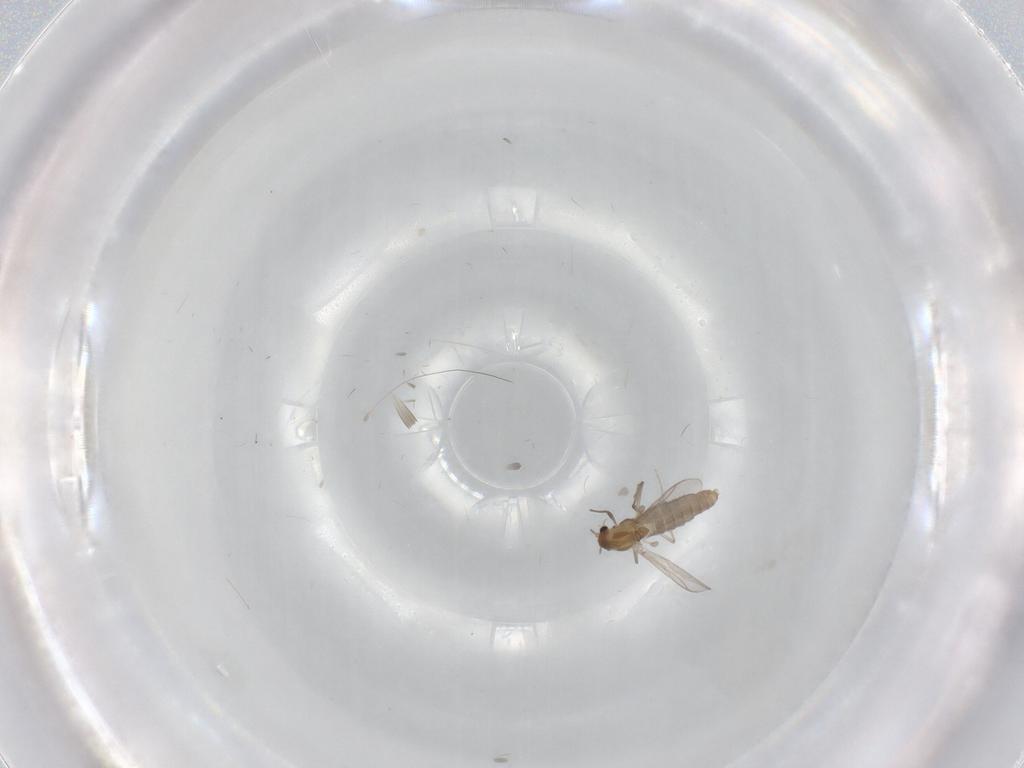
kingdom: Animalia
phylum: Arthropoda
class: Insecta
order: Diptera
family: Chironomidae
